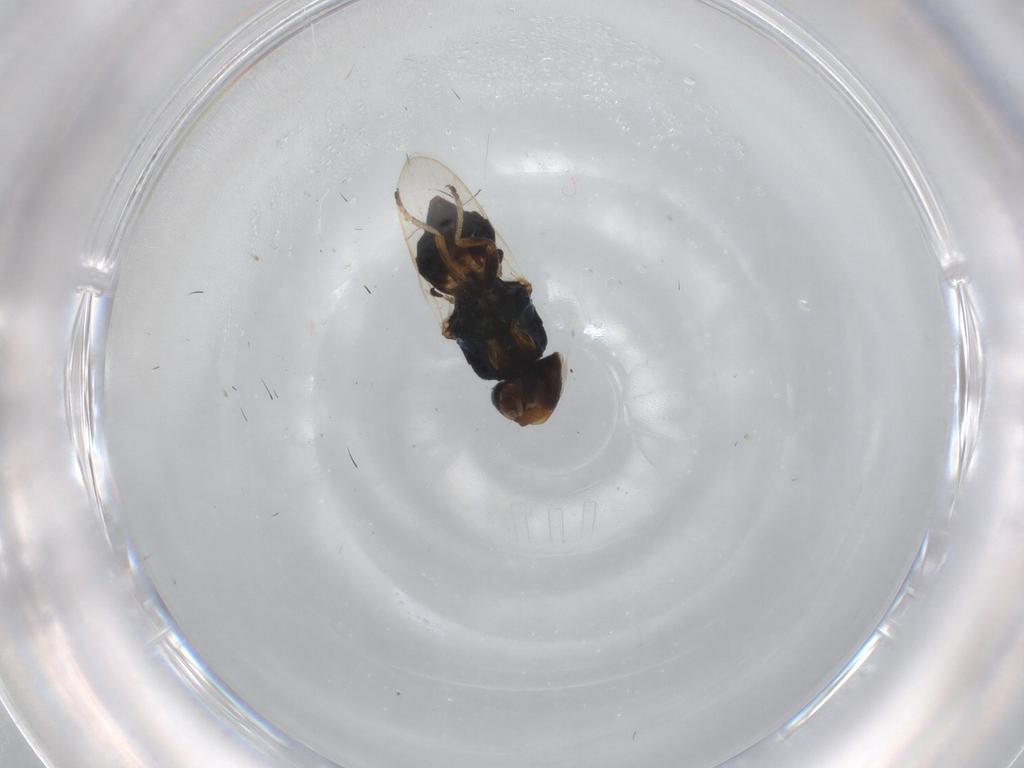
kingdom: Animalia
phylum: Arthropoda
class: Insecta
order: Diptera
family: Chloropidae
